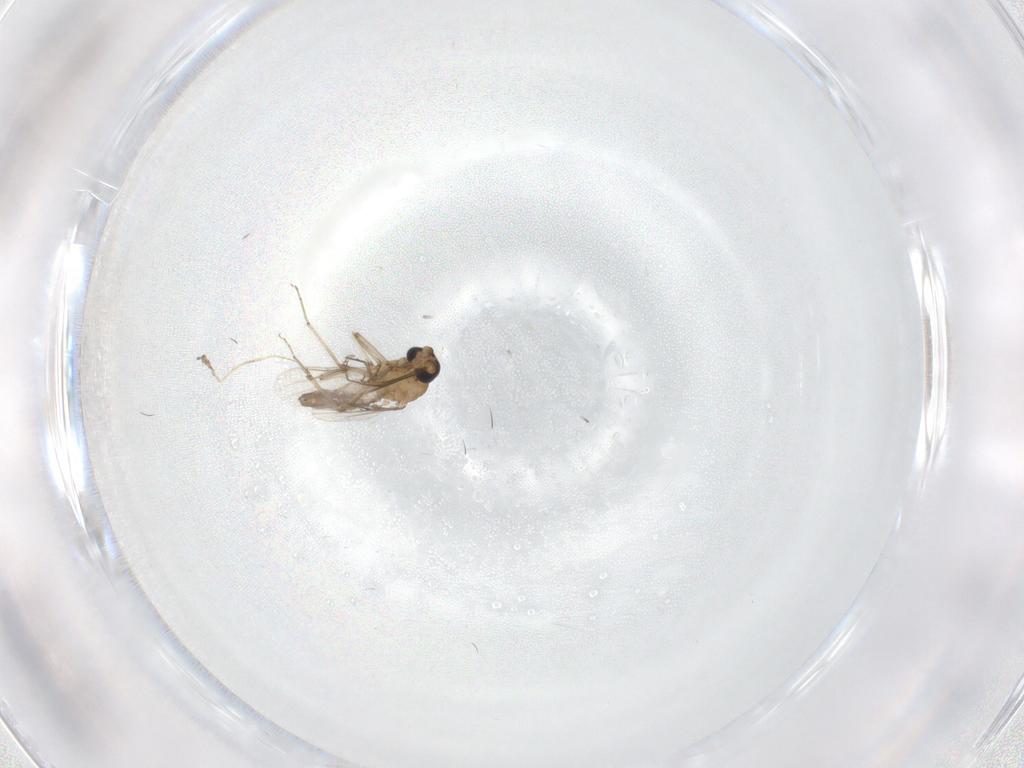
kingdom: Animalia
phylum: Arthropoda
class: Insecta
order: Diptera
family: Ceratopogonidae
